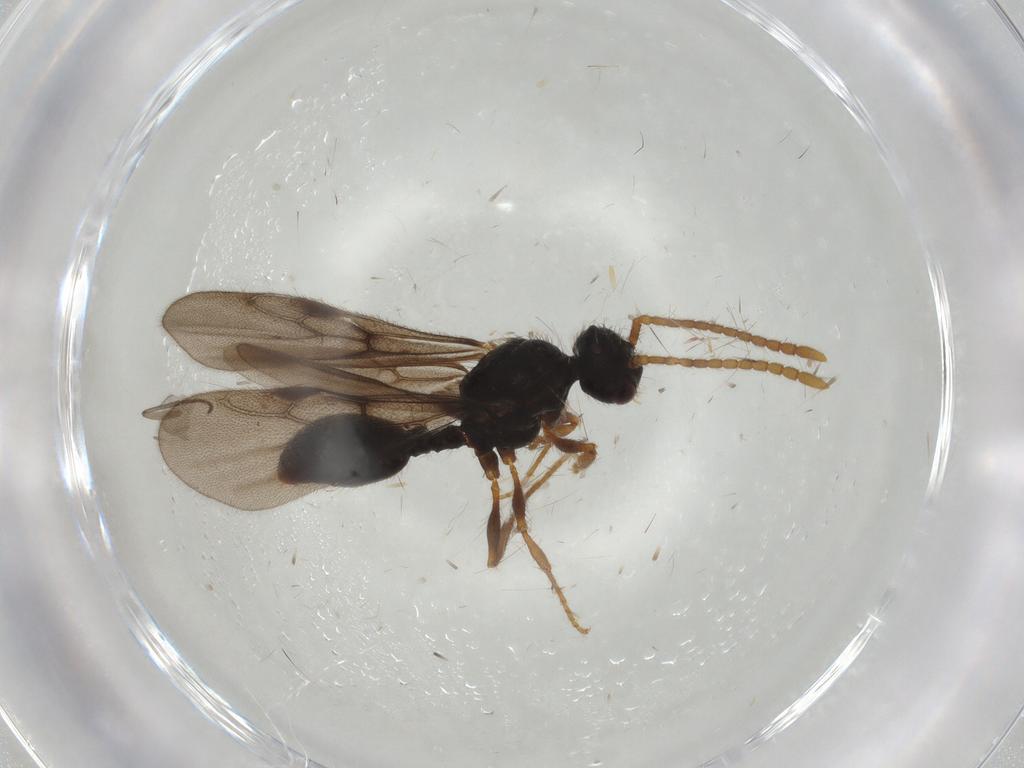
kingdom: Animalia
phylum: Arthropoda
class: Insecta
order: Hymenoptera
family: Formicidae
